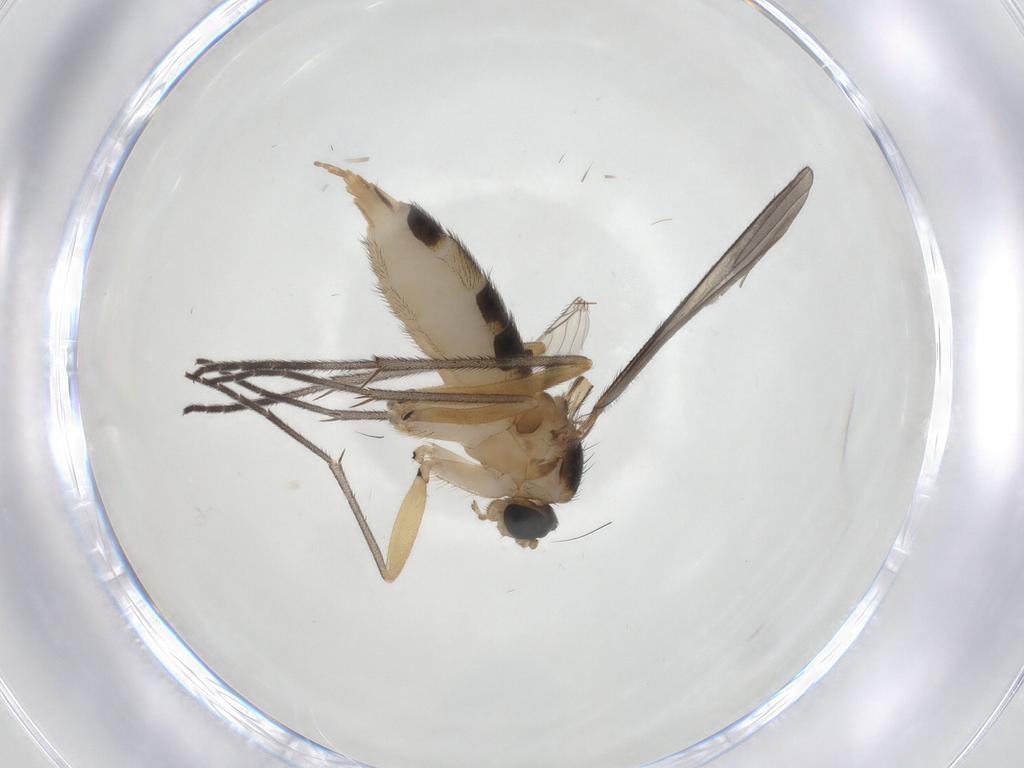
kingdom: Animalia
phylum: Arthropoda
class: Insecta
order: Diptera
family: Sciaridae
